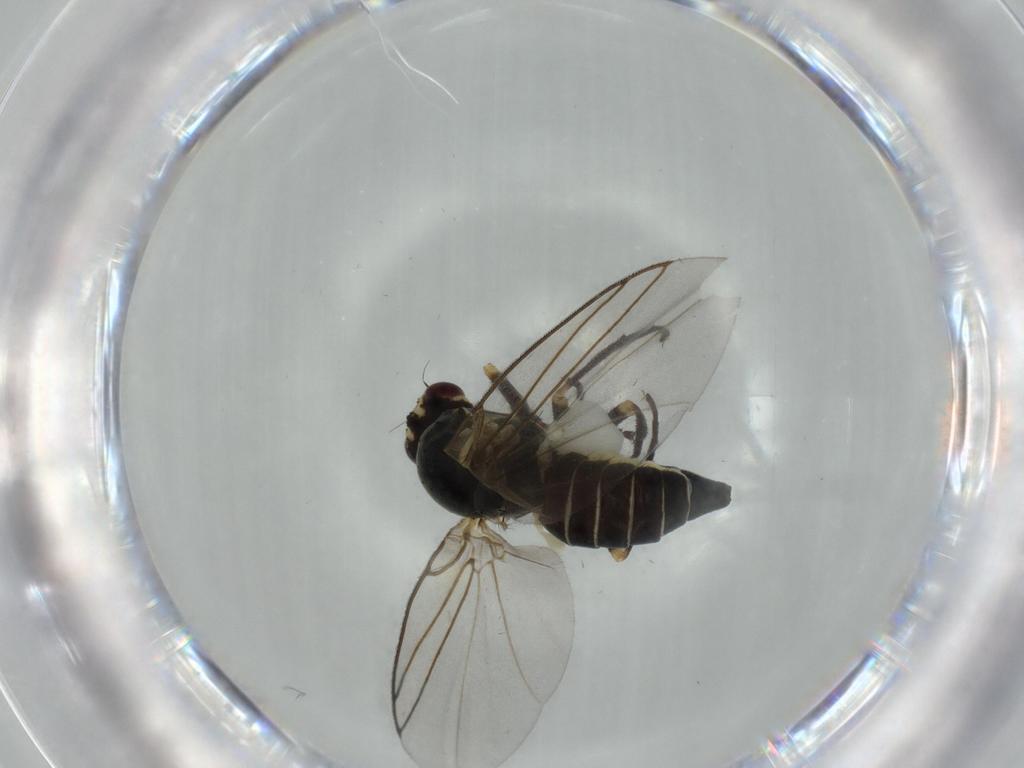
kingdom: Animalia
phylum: Arthropoda
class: Insecta
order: Diptera
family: Agromyzidae
